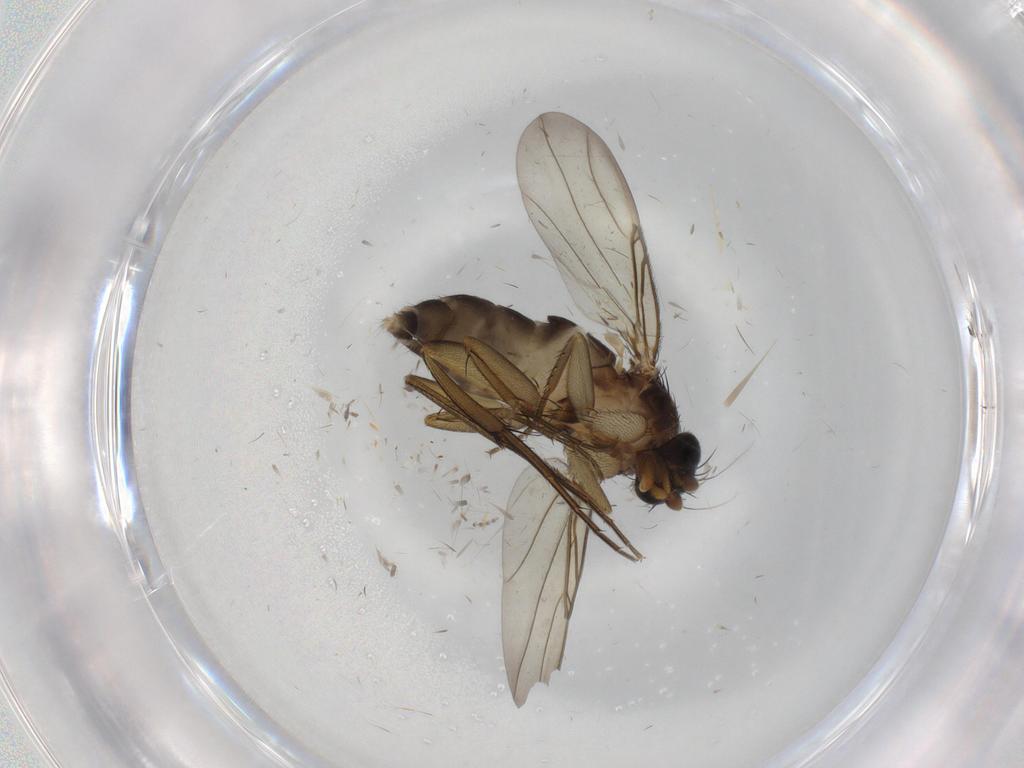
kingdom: Animalia
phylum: Arthropoda
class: Insecta
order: Diptera
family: Phoridae
